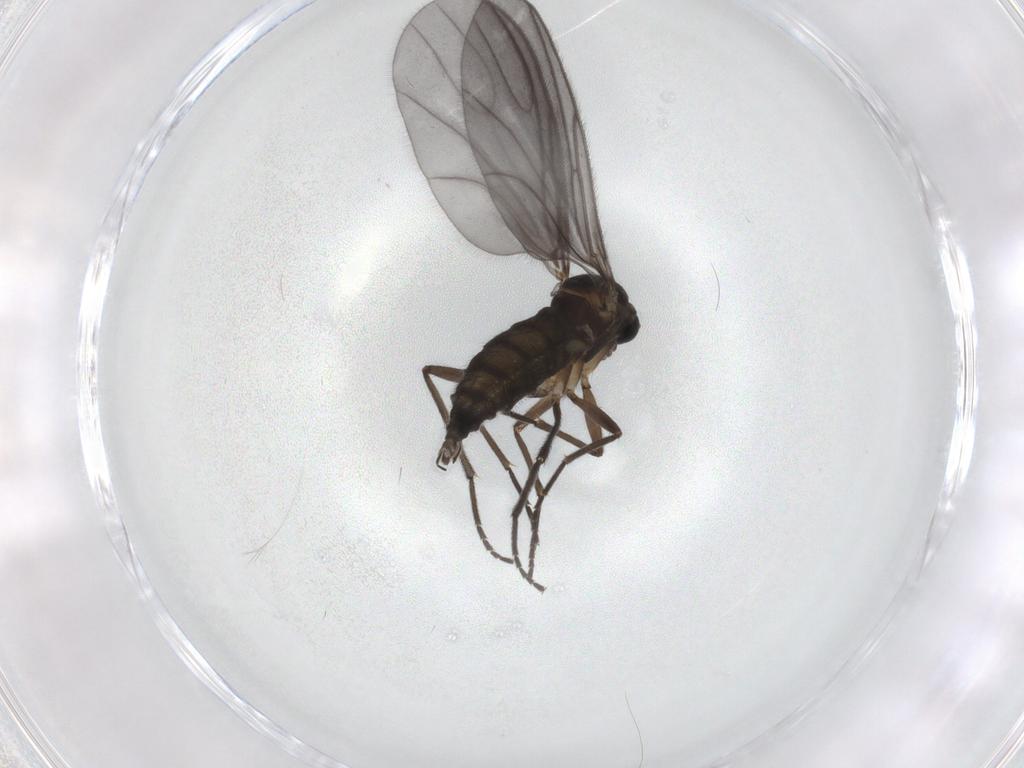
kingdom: Animalia
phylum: Arthropoda
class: Insecta
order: Diptera
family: Sciaridae
